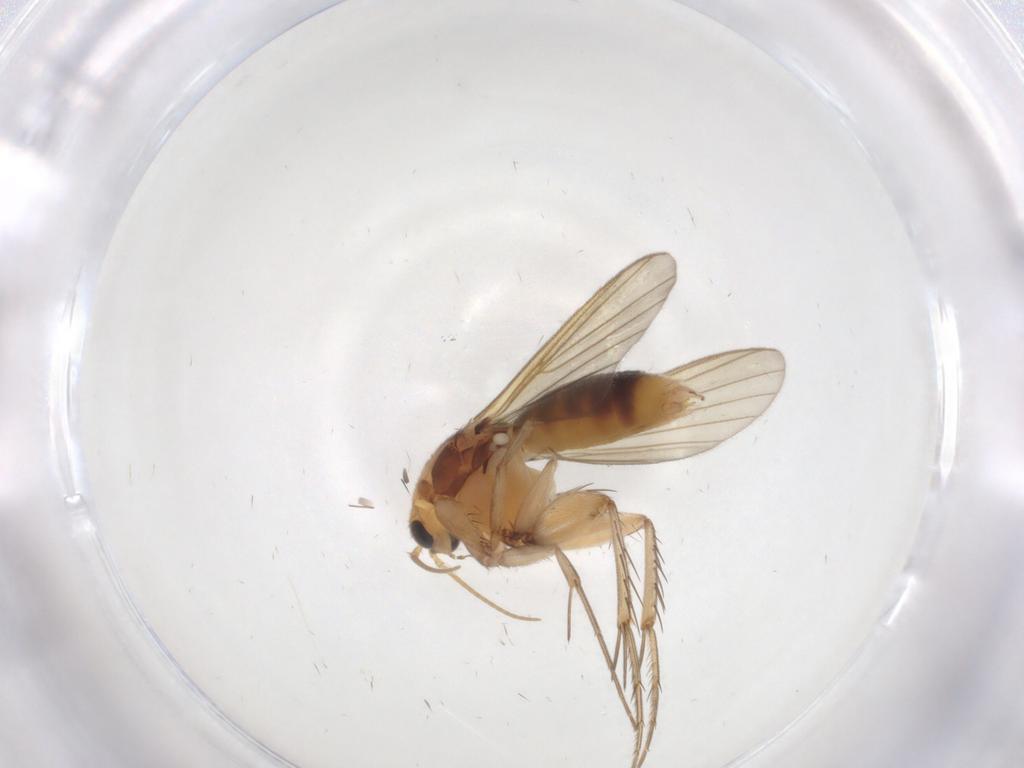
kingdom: Animalia
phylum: Arthropoda
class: Insecta
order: Diptera
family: Mycetophilidae
